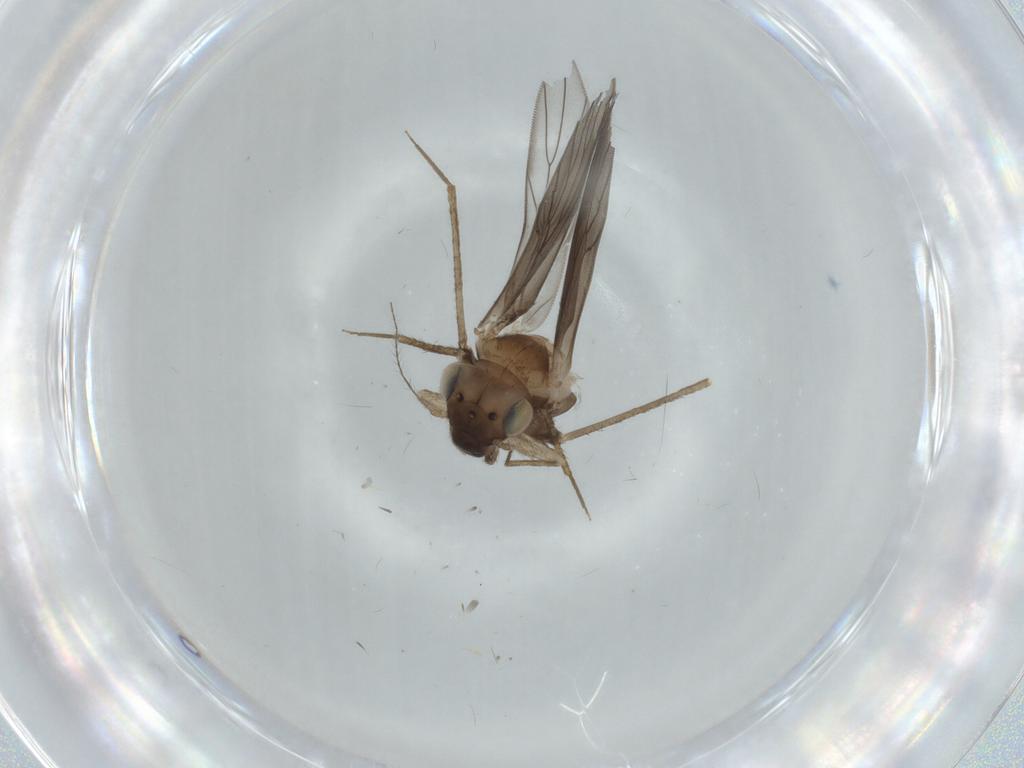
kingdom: Animalia
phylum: Arthropoda
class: Insecta
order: Psocodea
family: Lepidopsocidae
